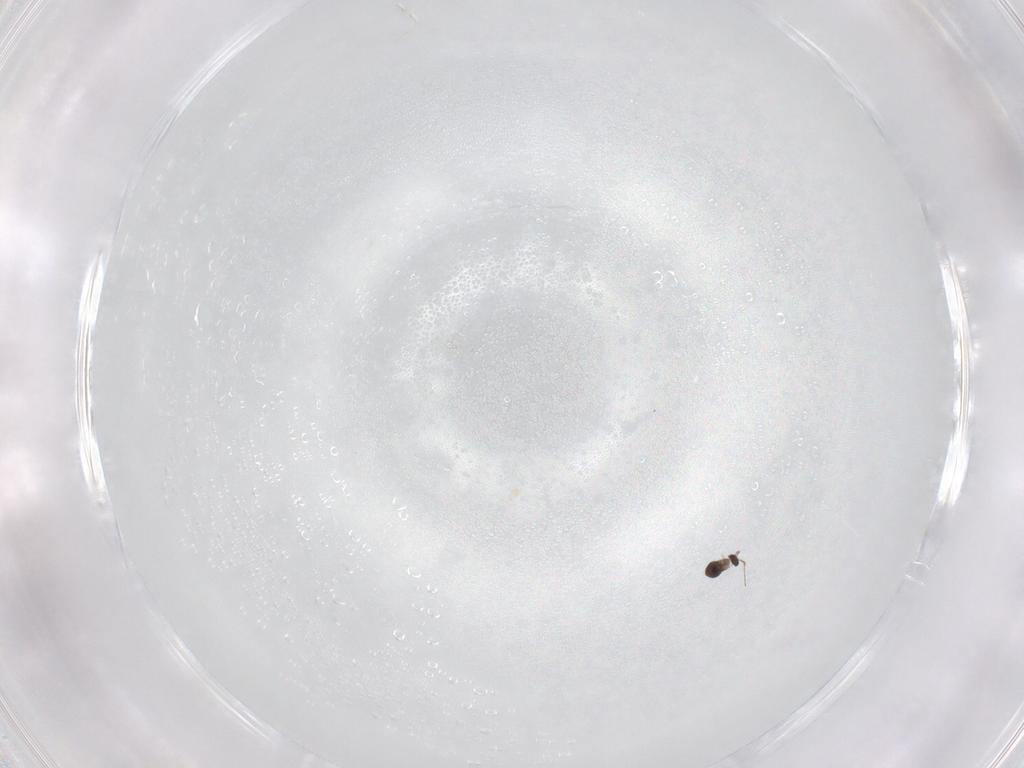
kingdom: Animalia
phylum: Arthropoda
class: Insecta
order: Hymenoptera
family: Mymaridae
